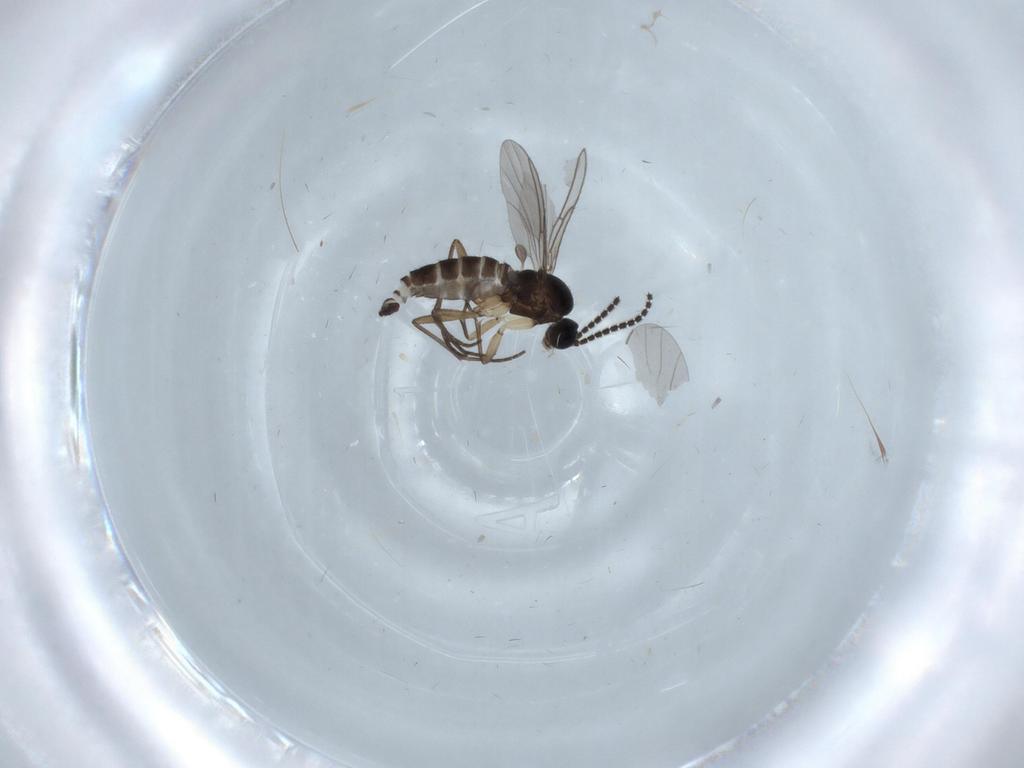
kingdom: Animalia
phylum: Arthropoda
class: Insecta
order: Diptera
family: Sciaridae
